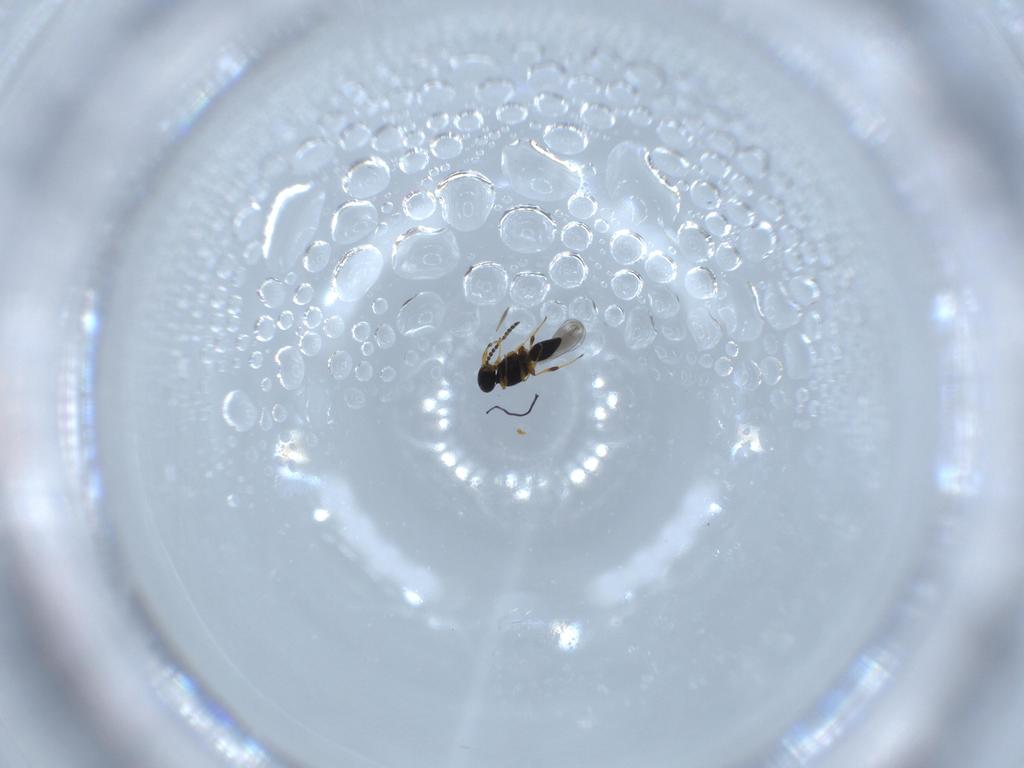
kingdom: Animalia
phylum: Arthropoda
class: Insecta
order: Hymenoptera
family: Platygastridae
